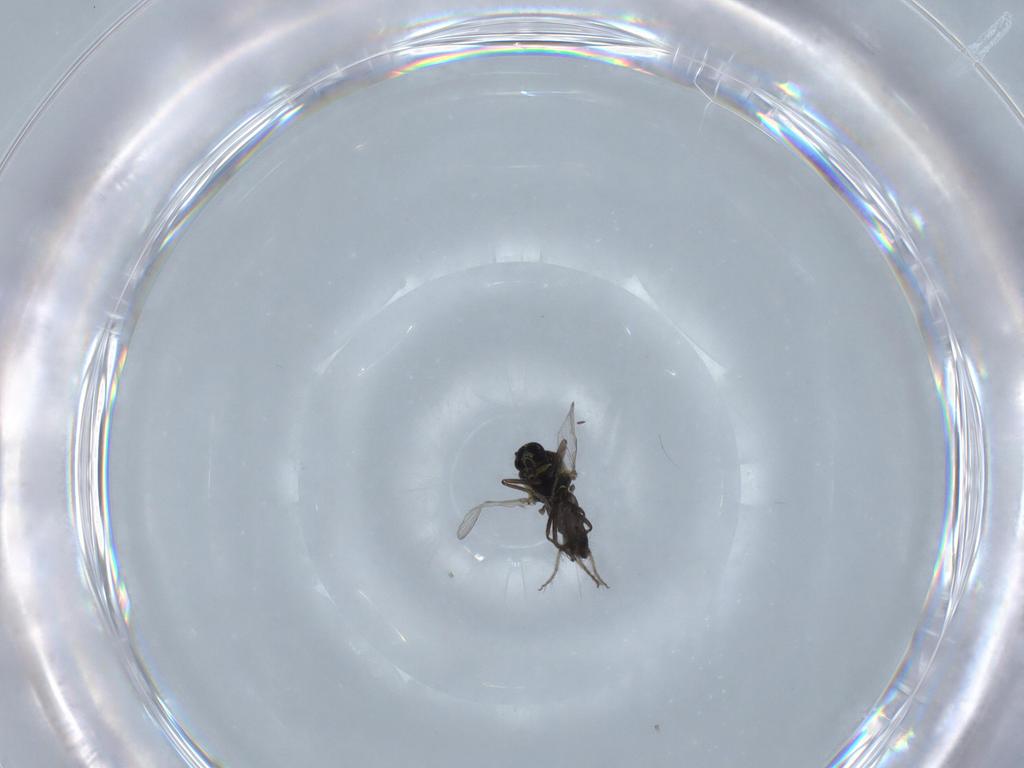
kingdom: Animalia
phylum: Arthropoda
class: Insecta
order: Diptera
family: Ceratopogonidae
